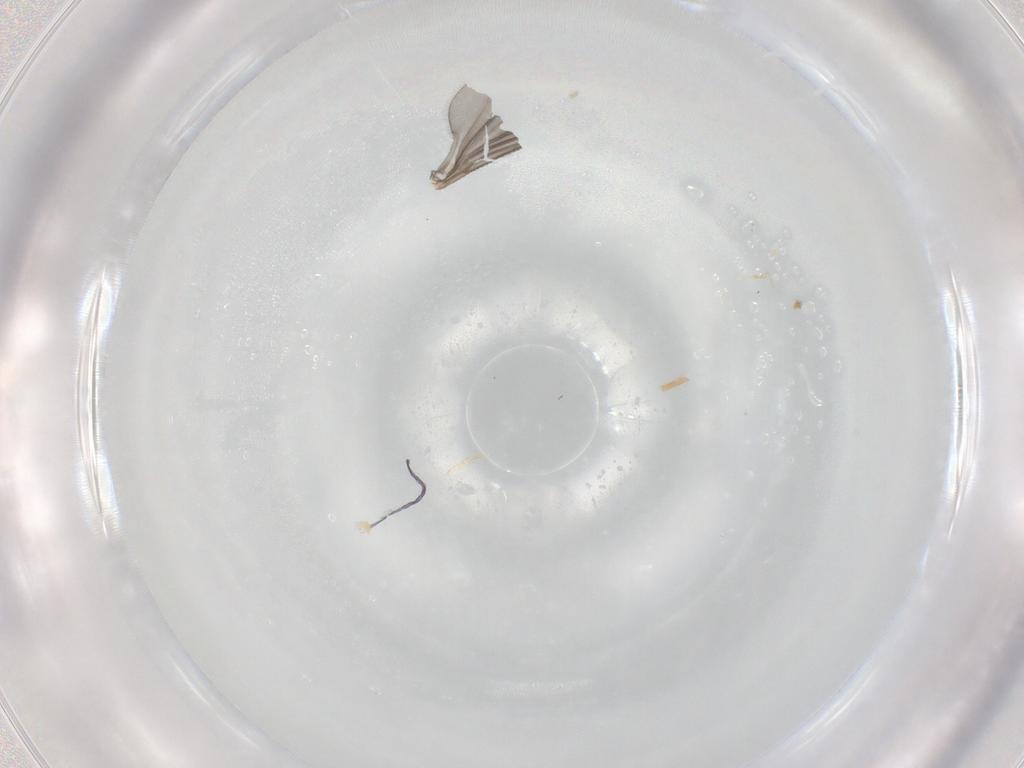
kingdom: Animalia
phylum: Arthropoda
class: Insecta
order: Diptera
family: Sciaridae
